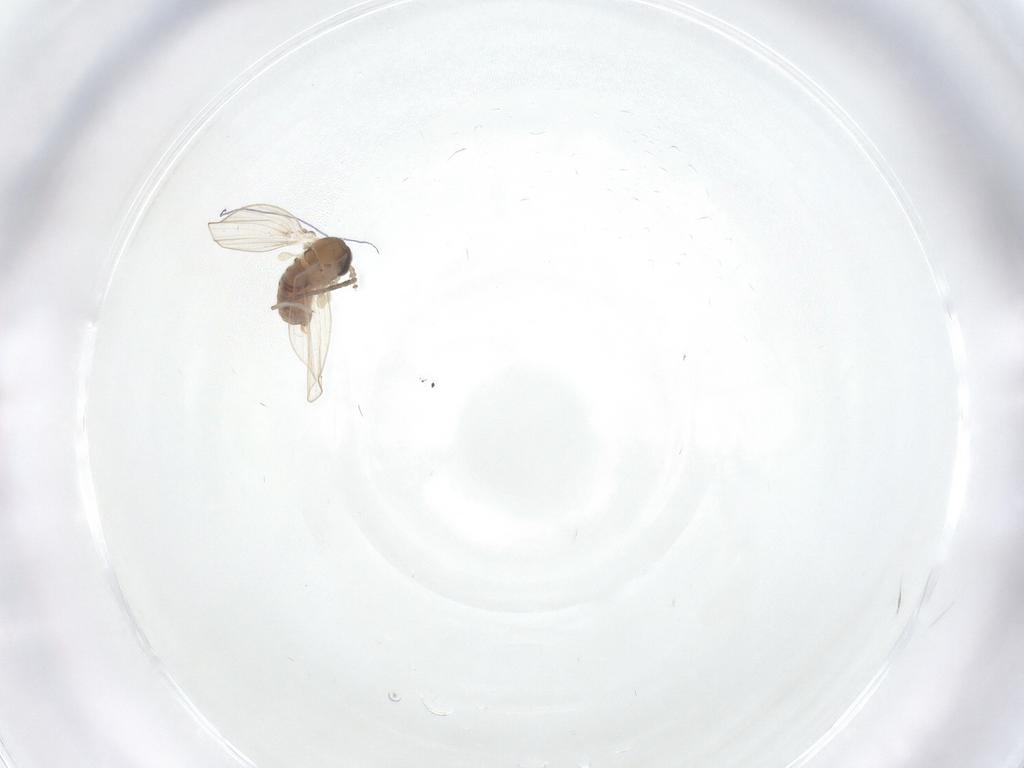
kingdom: Animalia
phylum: Arthropoda
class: Insecta
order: Diptera
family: Psychodidae
